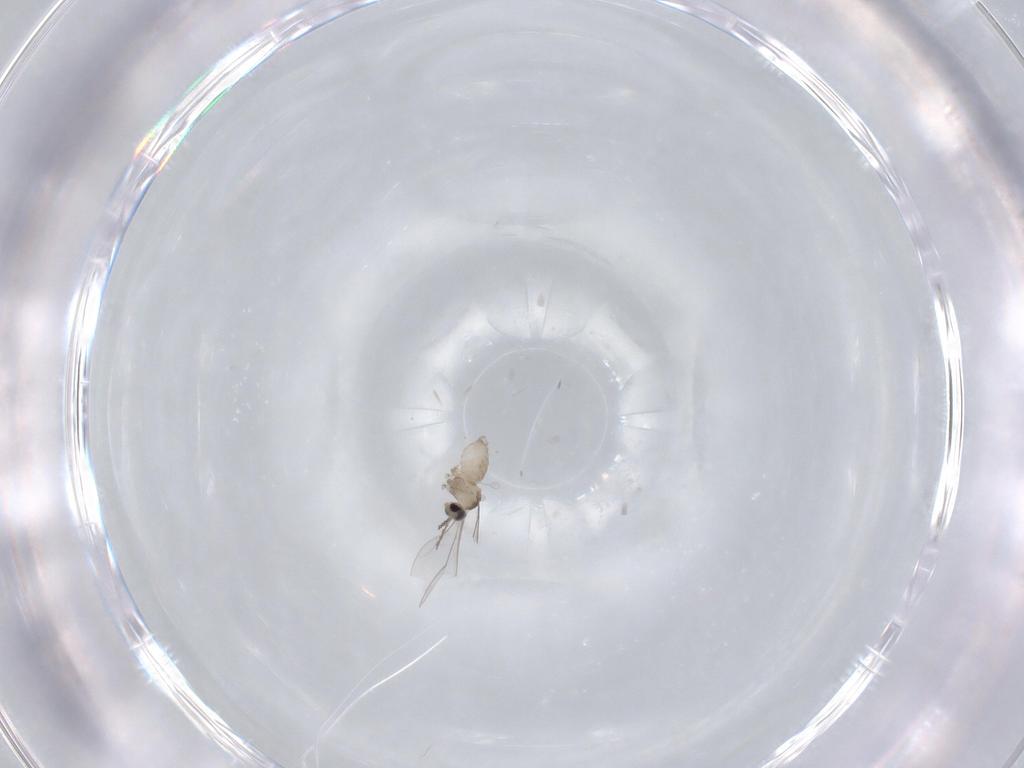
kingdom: Animalia
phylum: Arthropoda
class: Insecta
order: Diptera
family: Cecidomyiidae
